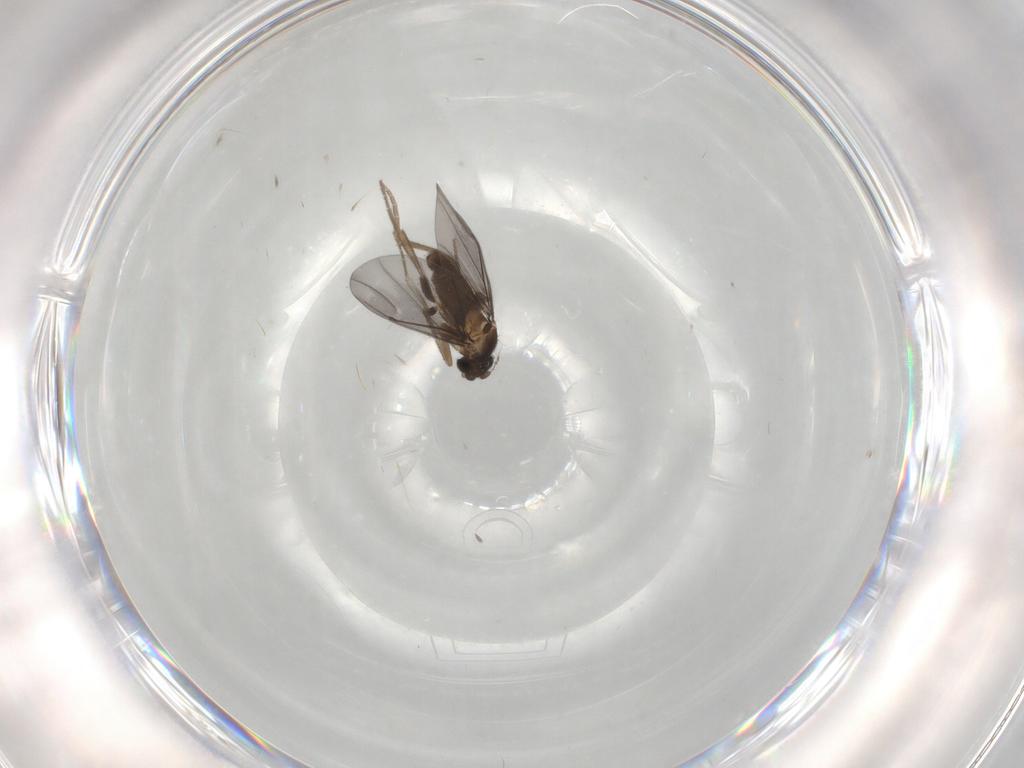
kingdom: Animalia
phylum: Arthropoda
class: Insecta
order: Diptera
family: Phoridae
